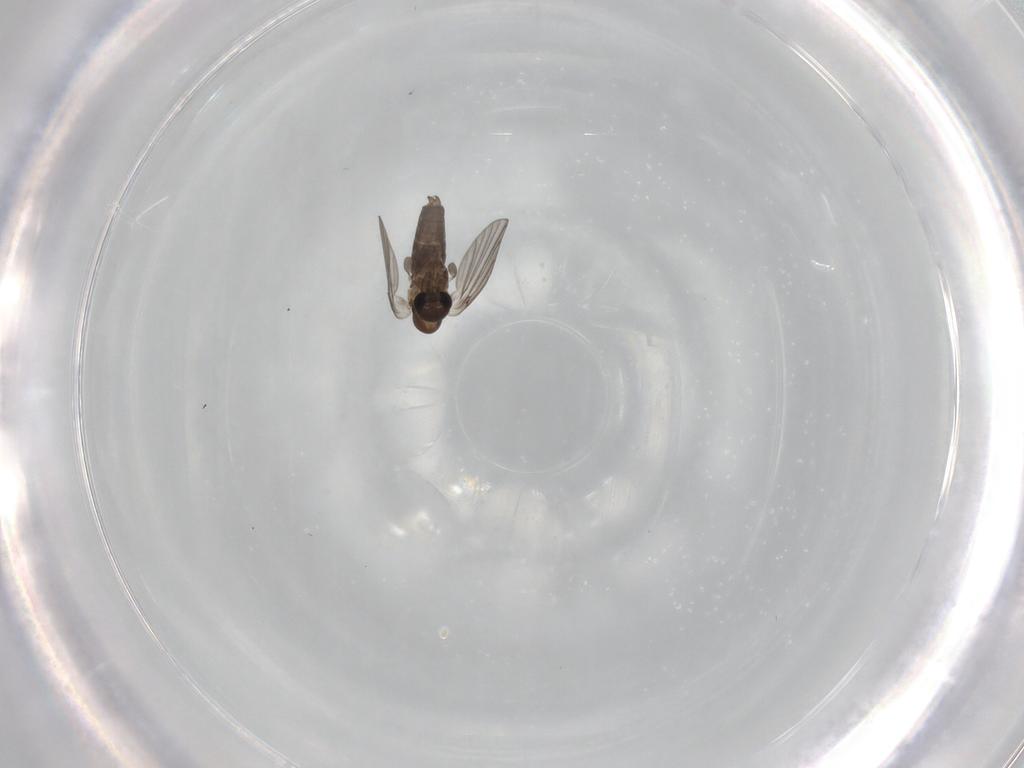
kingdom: Animalia
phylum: Arthropoda
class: Insecta
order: Diptera
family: Psychodidae
